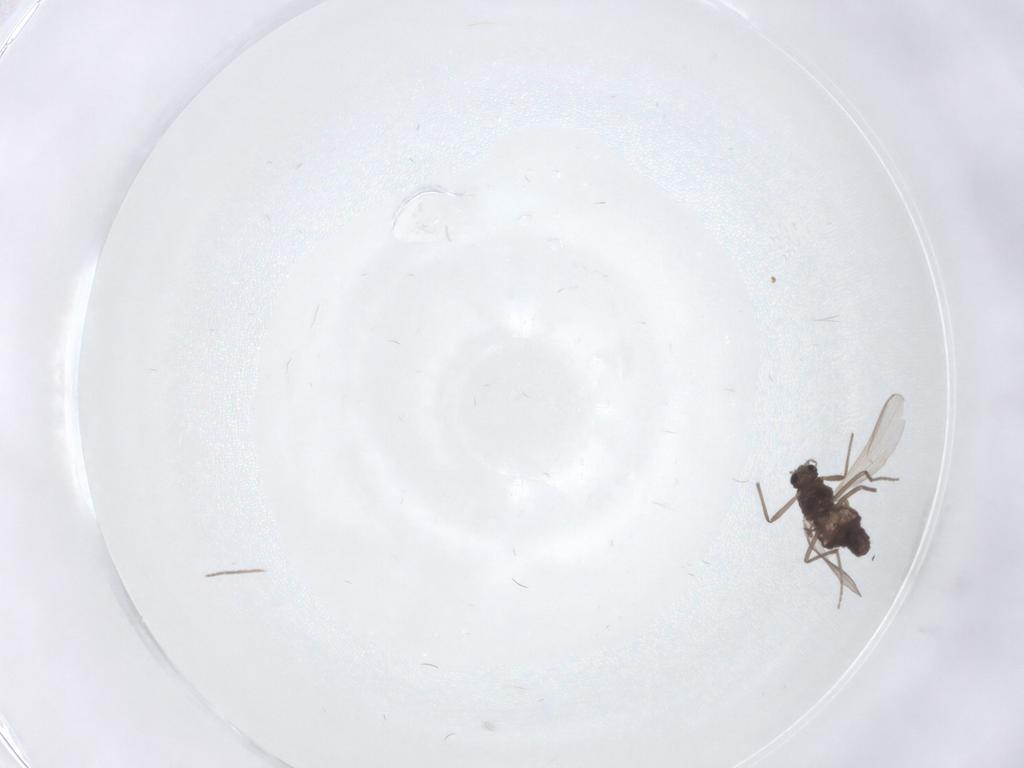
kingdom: Animalia
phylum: Arthropoda
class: Insecta
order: Diptera
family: Chironomidae
